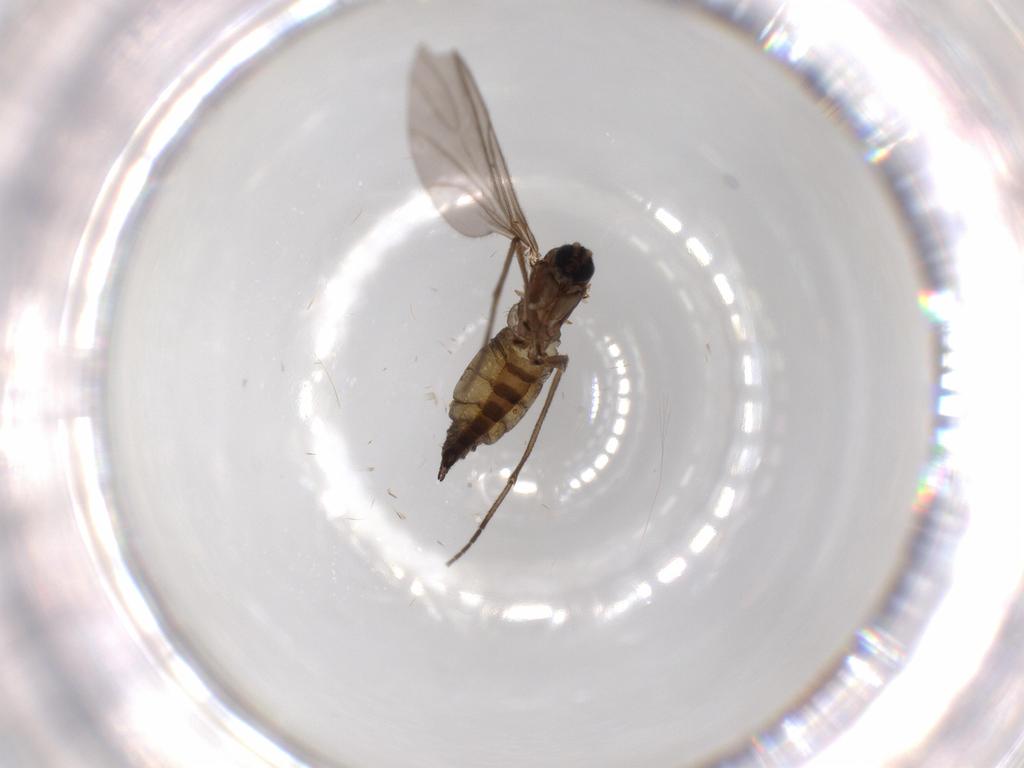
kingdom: Animalia
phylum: Arthropoda
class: Insecta
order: Diptera
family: Sciaridae
